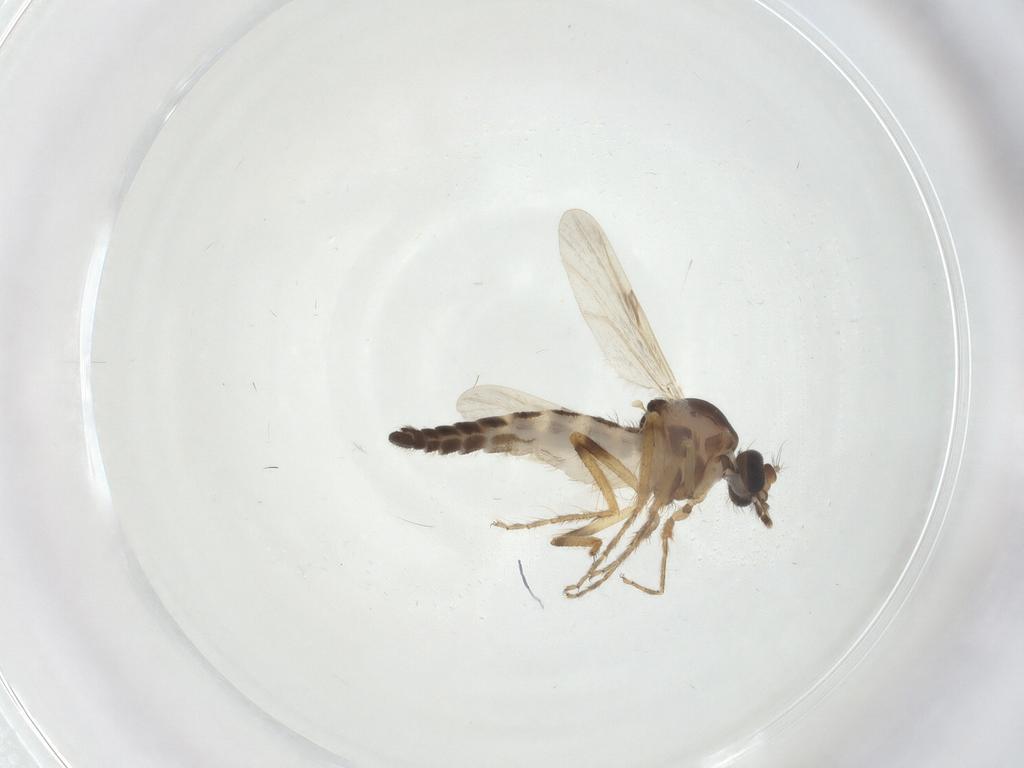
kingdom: Animalia
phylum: Arthropoda
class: Insecta
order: Diptera
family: Ceratopogonidae
